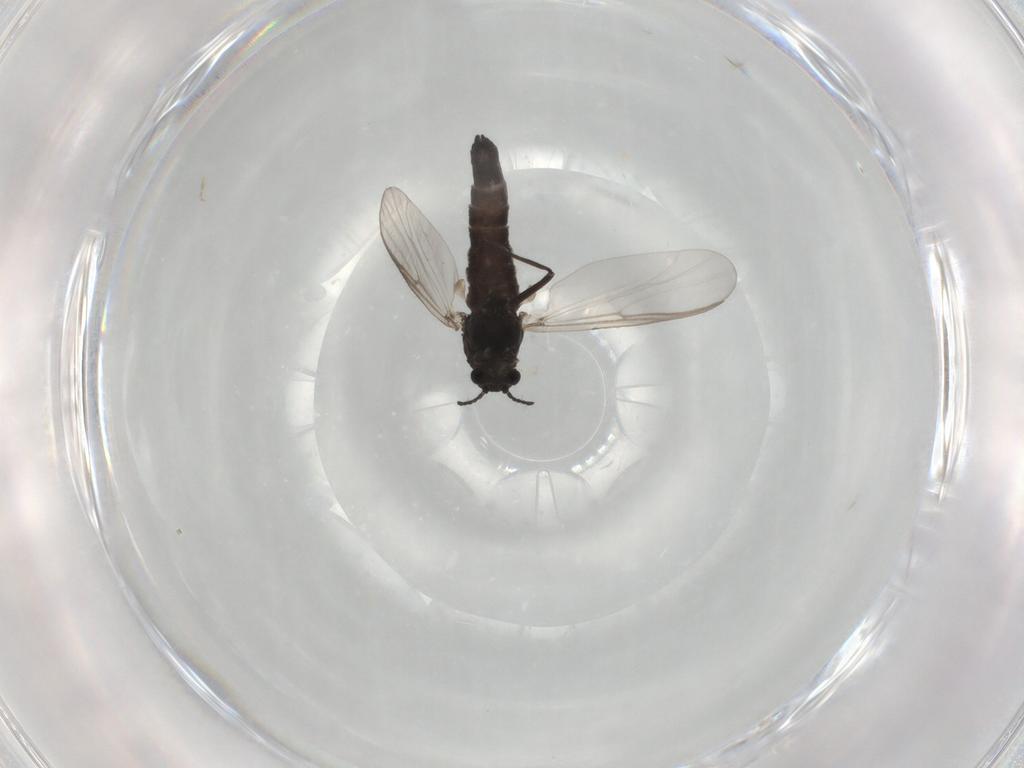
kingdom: Animalia
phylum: Arthropoda
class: Insecta
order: Diptera
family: Chironomidae
